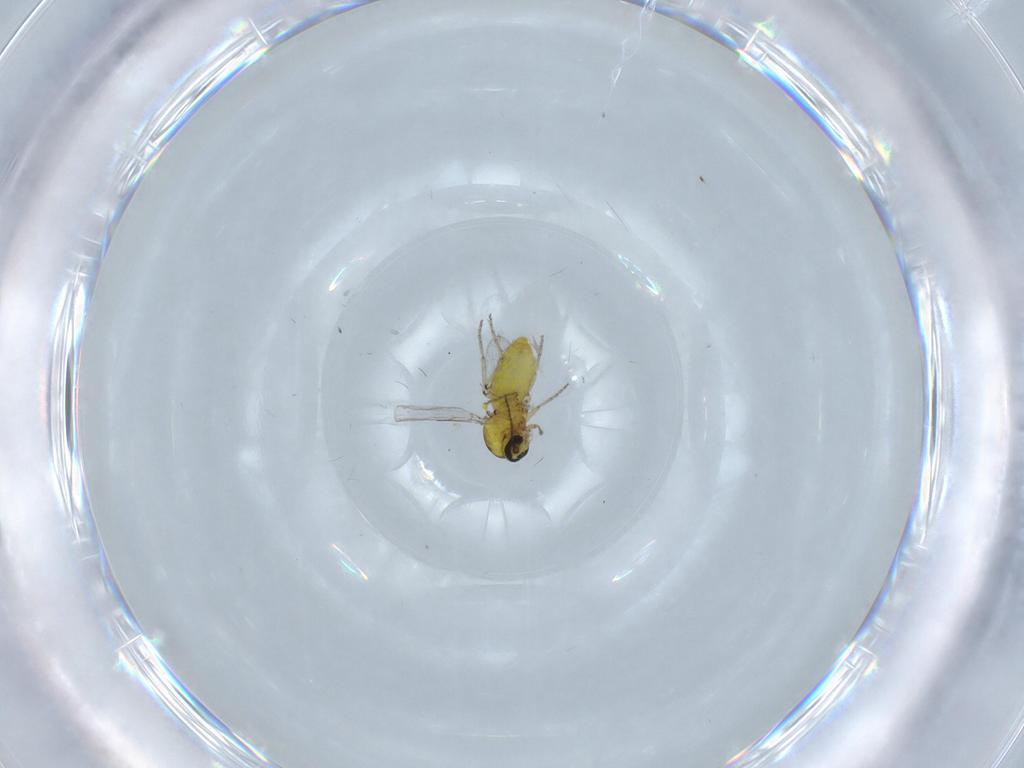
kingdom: Animalia
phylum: Arthropoda
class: Insecta
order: Diptera
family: Ceratopogonidae
